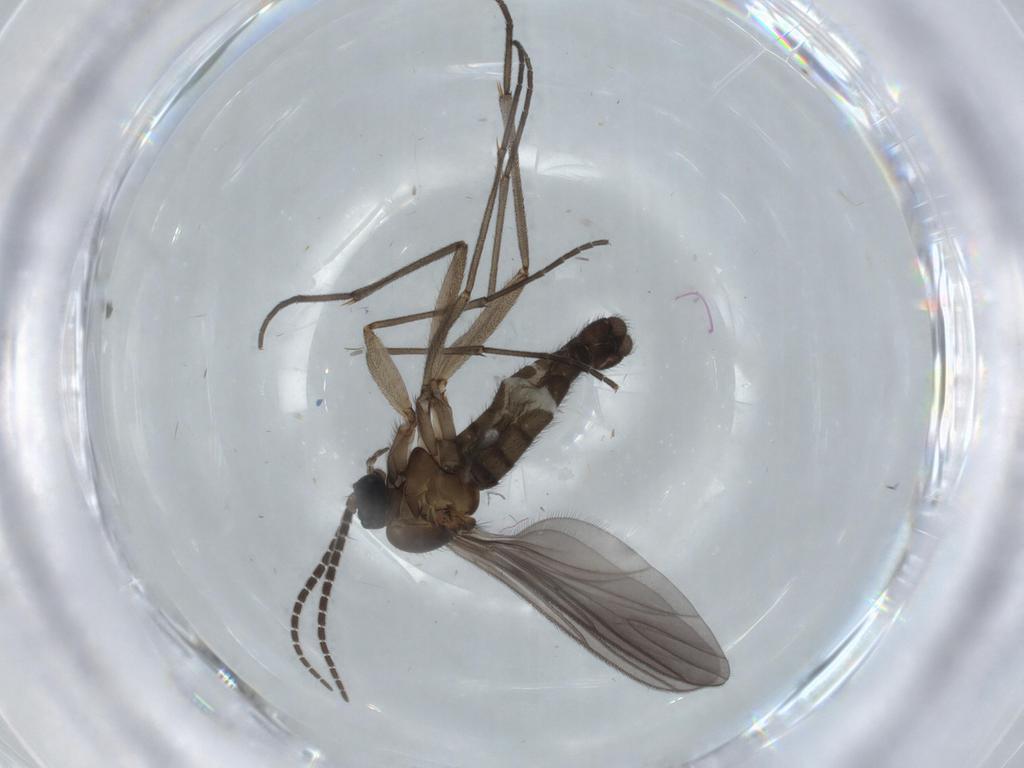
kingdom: Animalia
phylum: Arthropoda
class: Insecta
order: Diptera
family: Sciaridae
